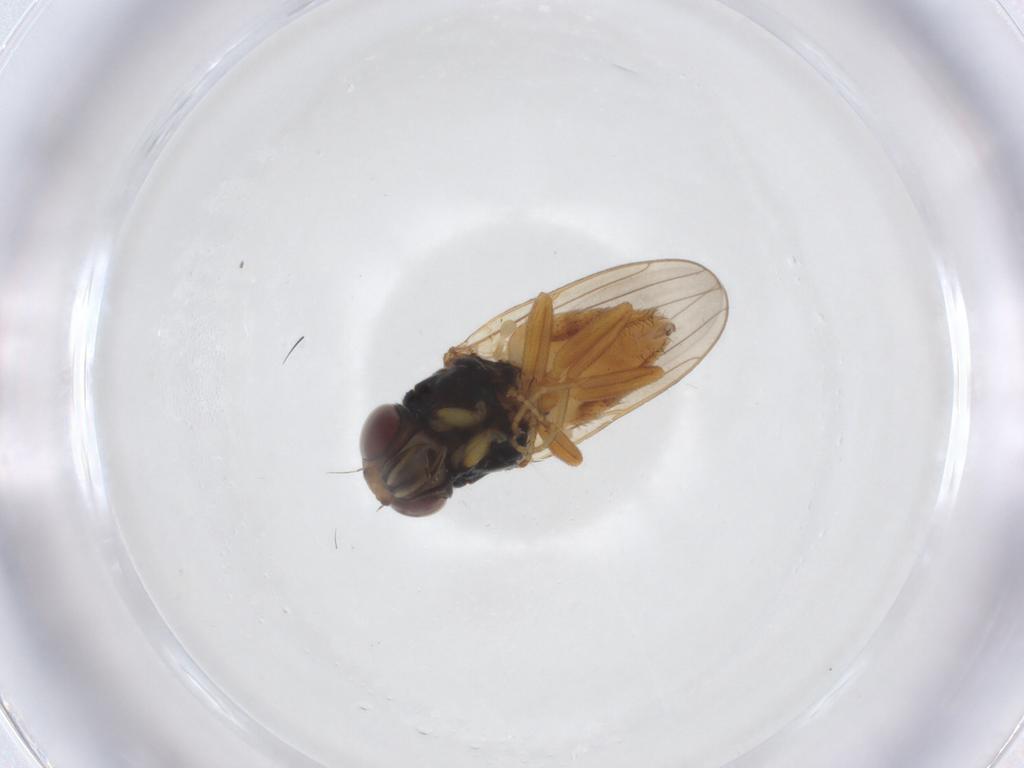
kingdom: Animalia
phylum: Arthropoda
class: Insecta
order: Diptera
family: Chloropidae
